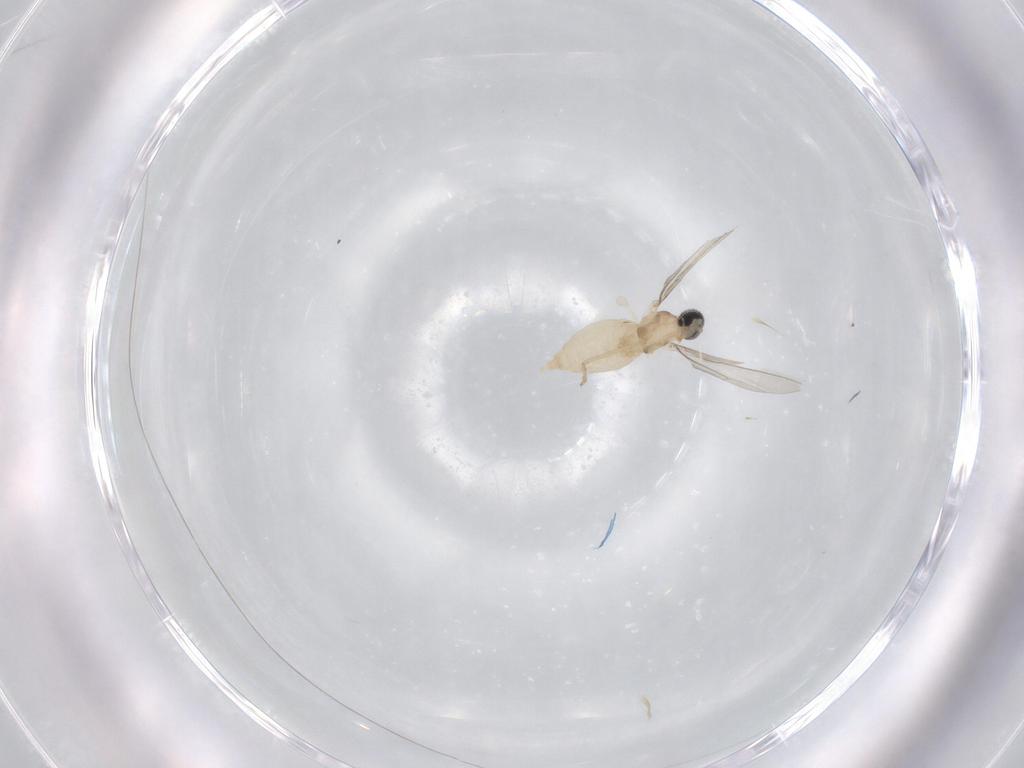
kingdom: Animalia
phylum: Arthropoda
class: Insecta
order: Diptera
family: Cecidomyiidae
